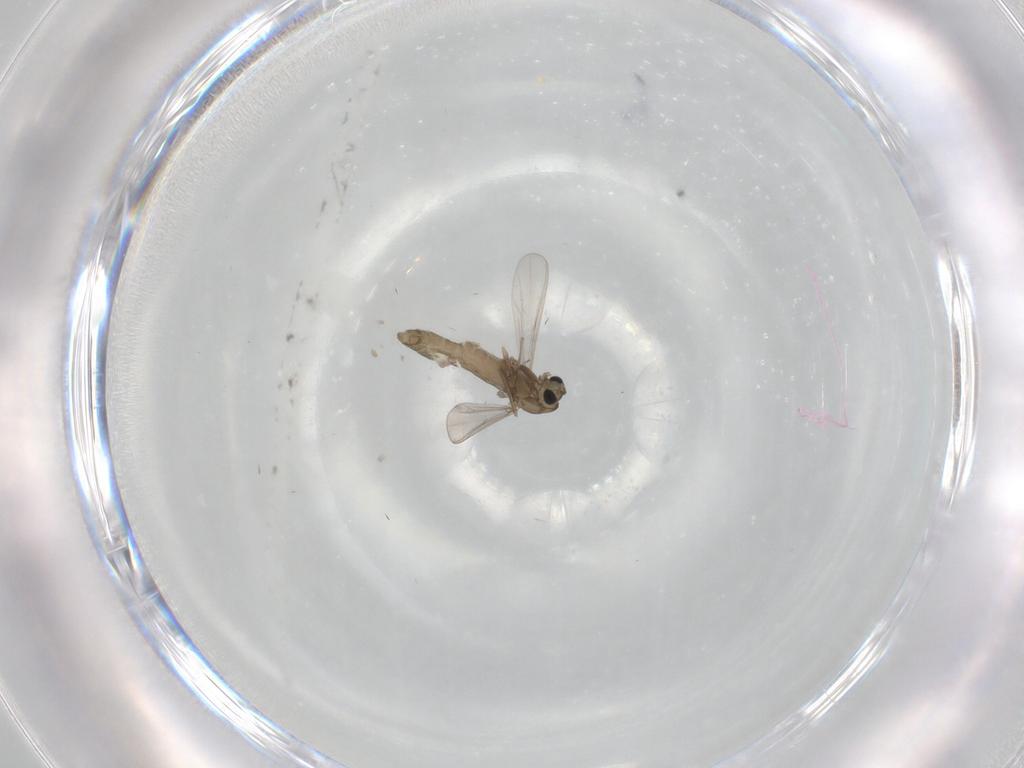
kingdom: Animalia
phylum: Arthropoda
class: Insecta
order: Diptera
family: Chironomidae
